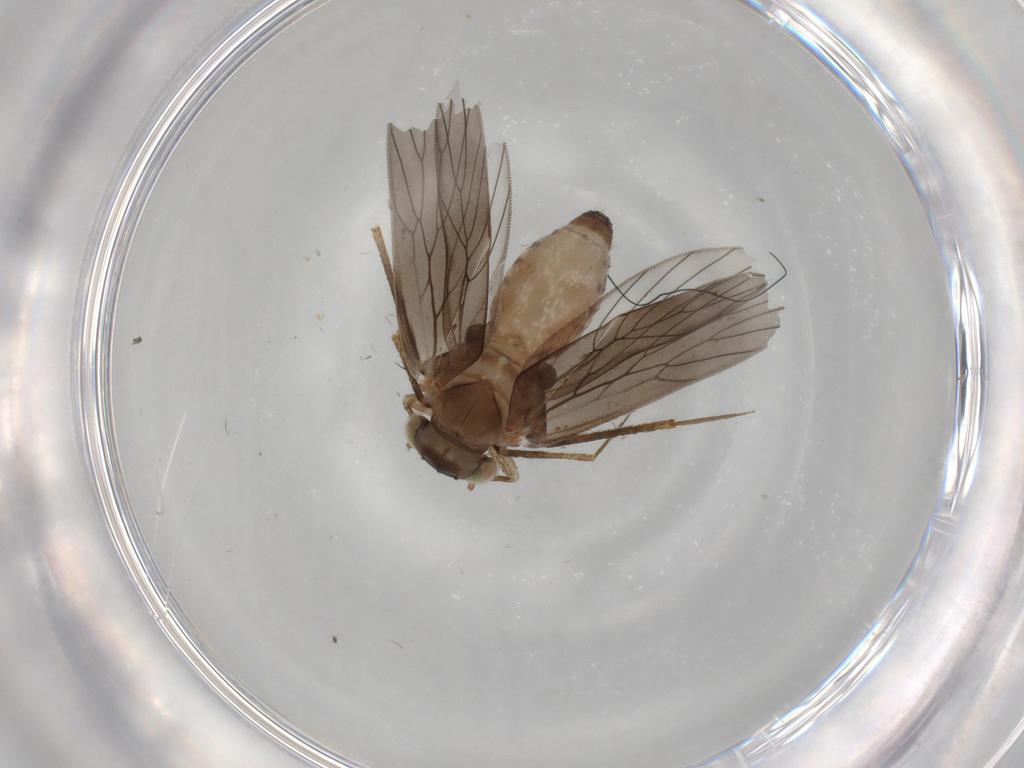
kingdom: Animalia
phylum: Arthropoda
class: Insecta
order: Psocodea
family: Lepidopsocidae
